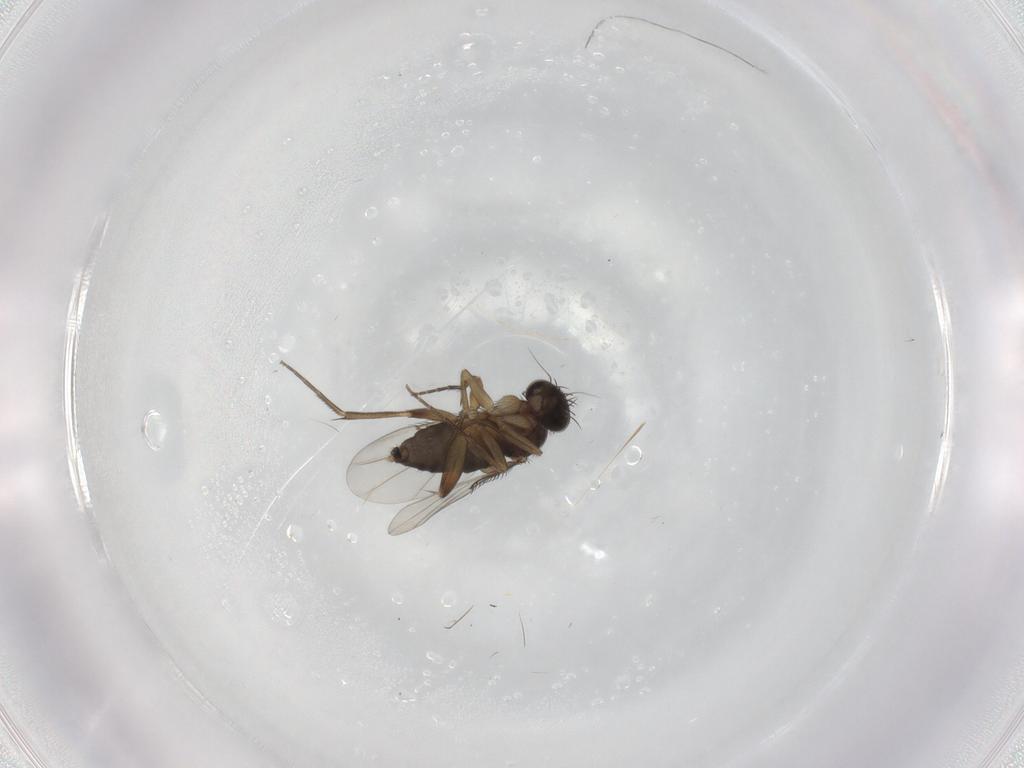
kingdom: Animalia
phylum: Arthropoda
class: Insecta
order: Diptera
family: Phoridae
